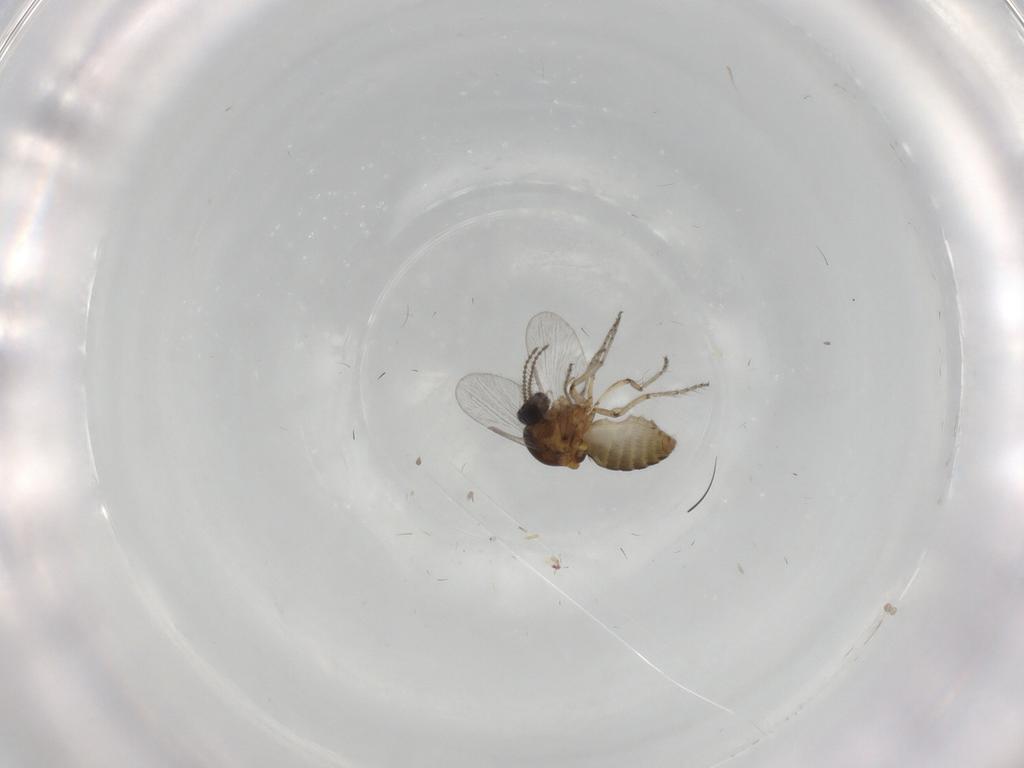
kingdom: Animalia
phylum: Arthropoda
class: Insecta
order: Diptera
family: Ceratopogonidae
